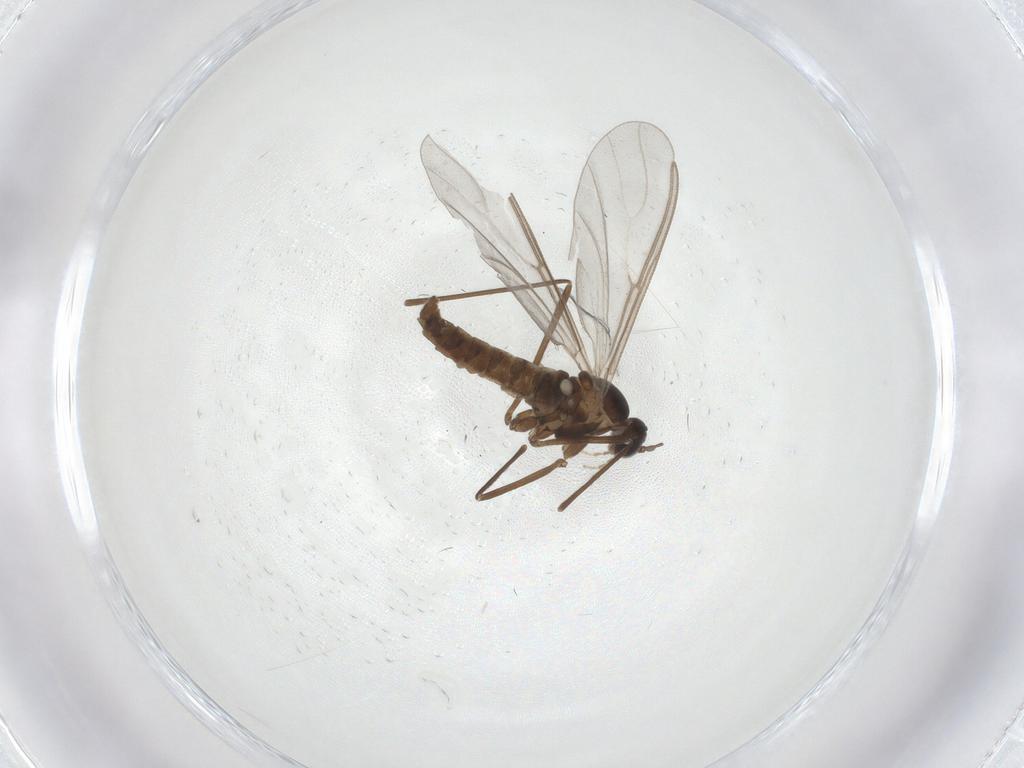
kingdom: Animalia
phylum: Arthropoda
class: Insecta
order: Diptera
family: Cecidomyiidae
